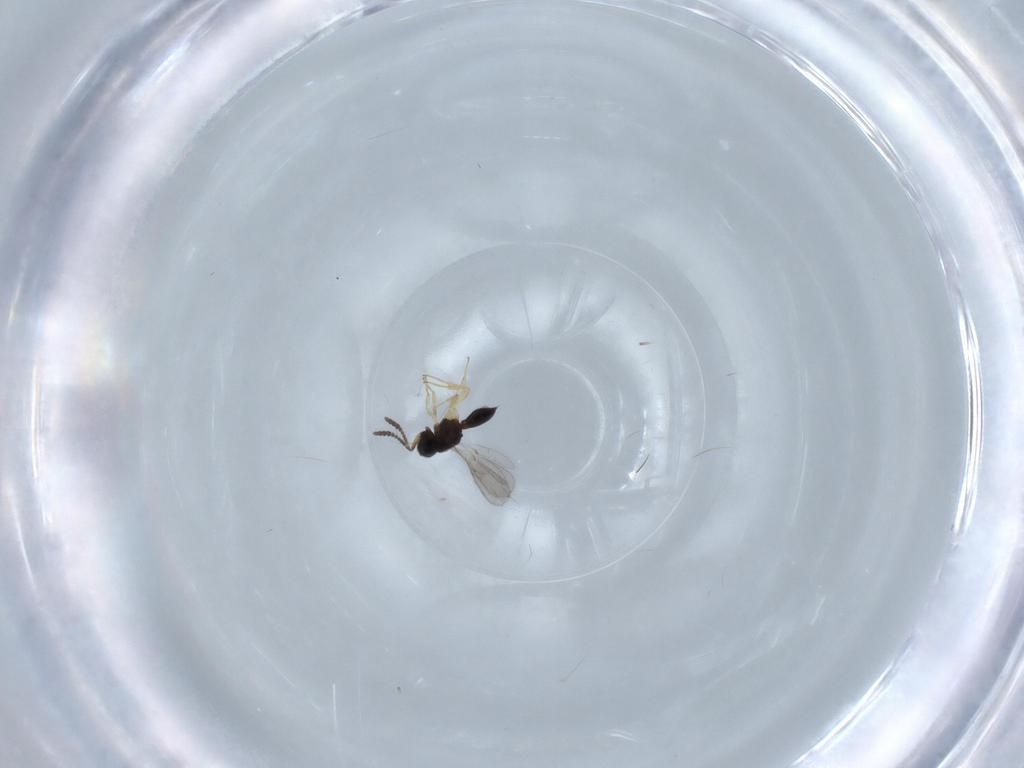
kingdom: Animalia
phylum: Arthropoda
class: Insecta
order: Hymenoptera
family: Scelionidae
